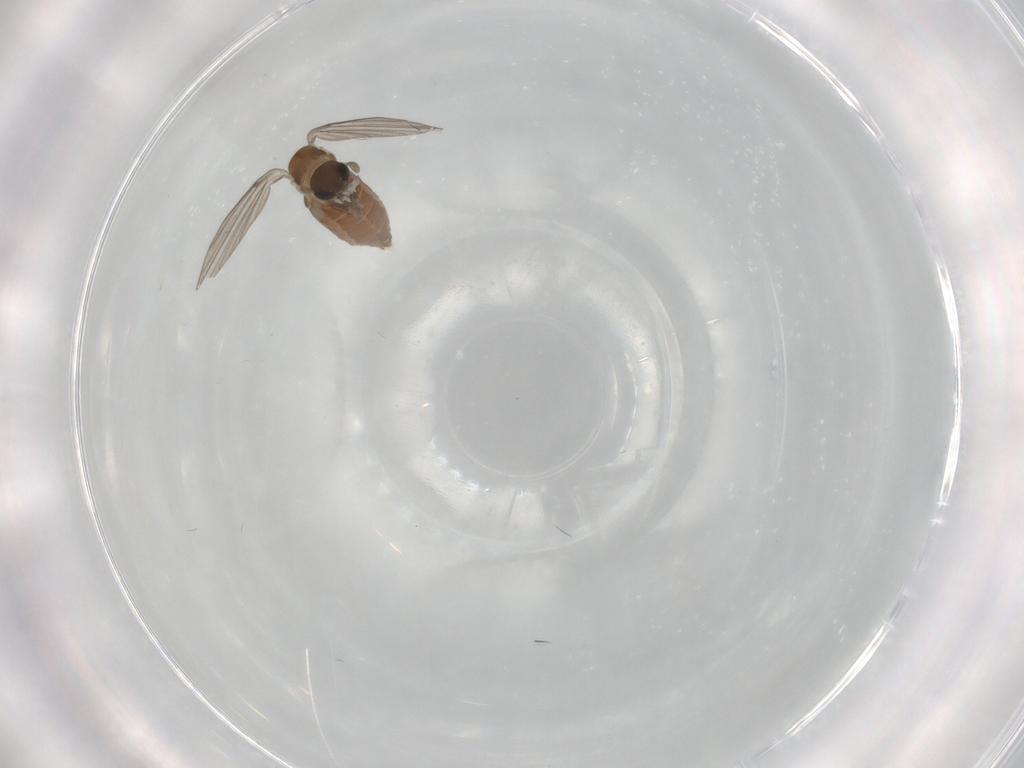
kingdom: Animalia
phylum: Arthropoda
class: Insecta
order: Diptera
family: Psychodidae
